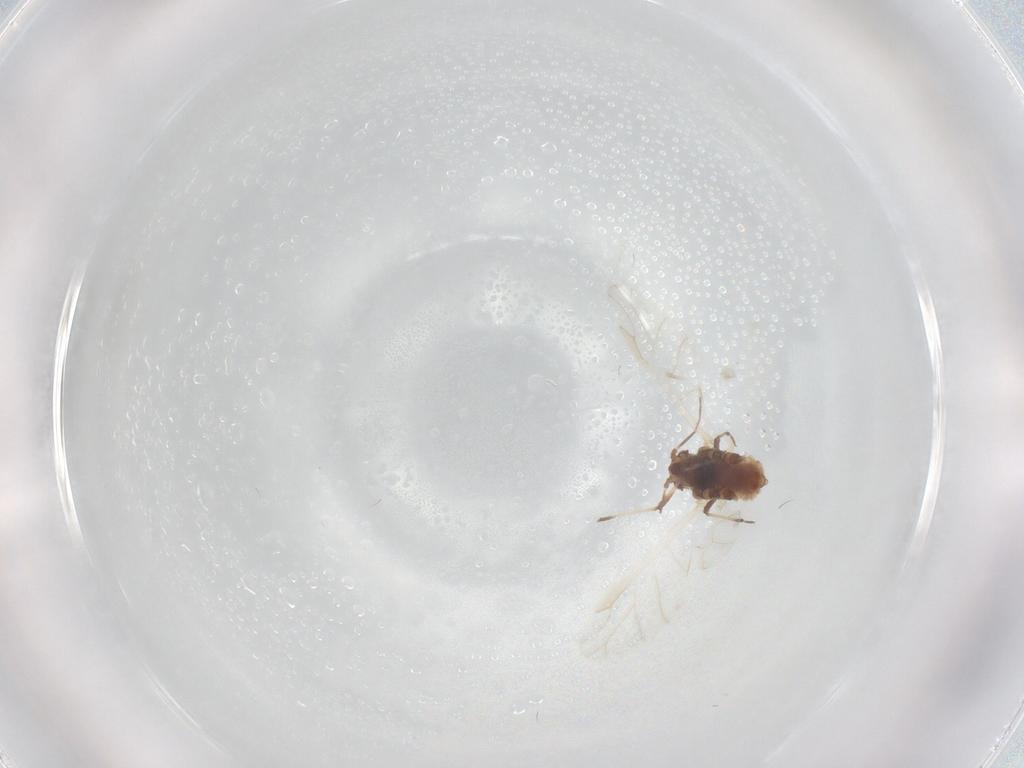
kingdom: Animalia
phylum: Arthropoda
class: Insecta
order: Hemiptera
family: Aphididae
